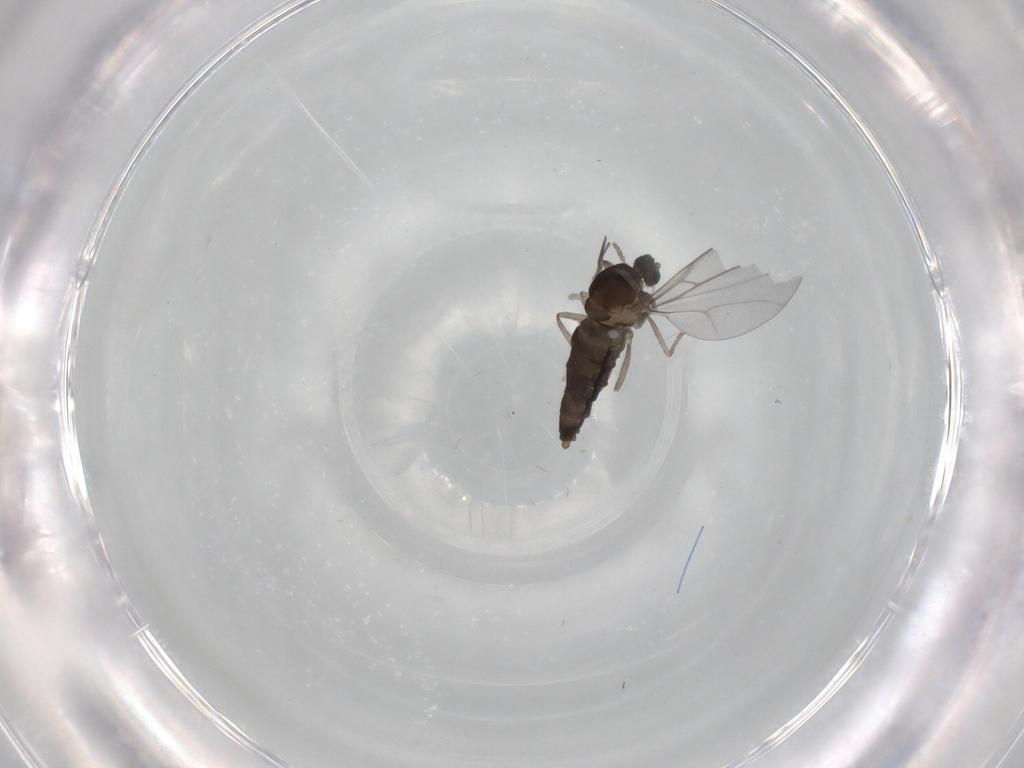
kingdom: Animalia
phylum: Arthropoda
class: Insecta
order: Diptera
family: Cecidomyiidae
